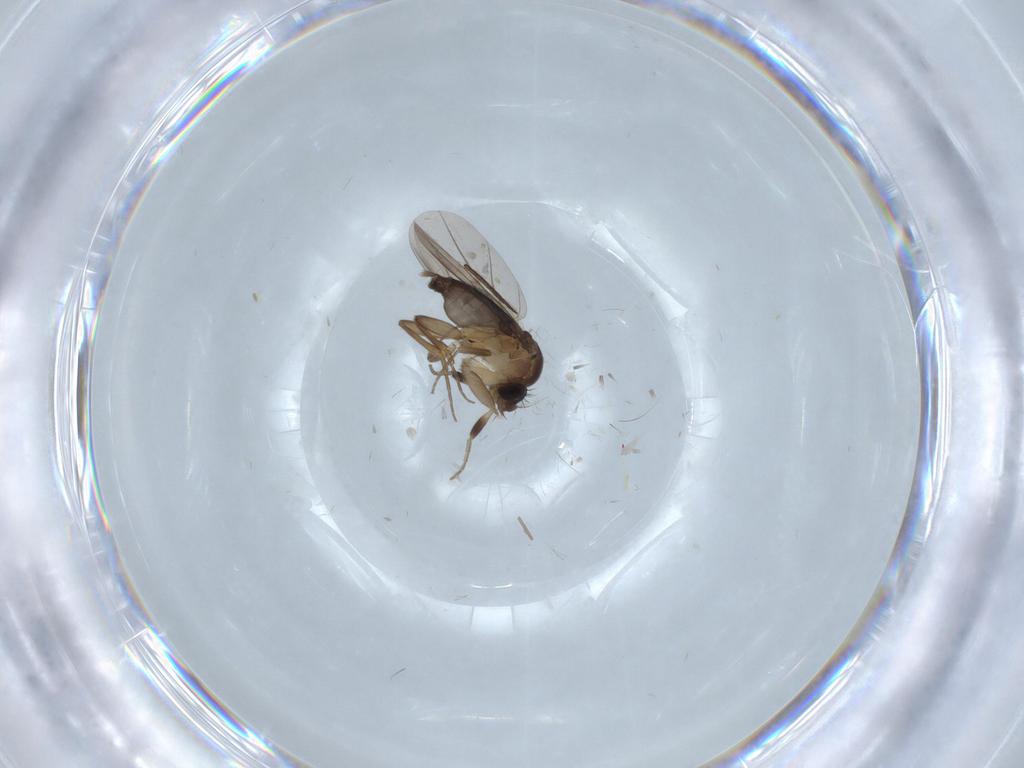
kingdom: Animalia
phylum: Arthropoda
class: Insecta
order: Diptera
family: Phoridae
